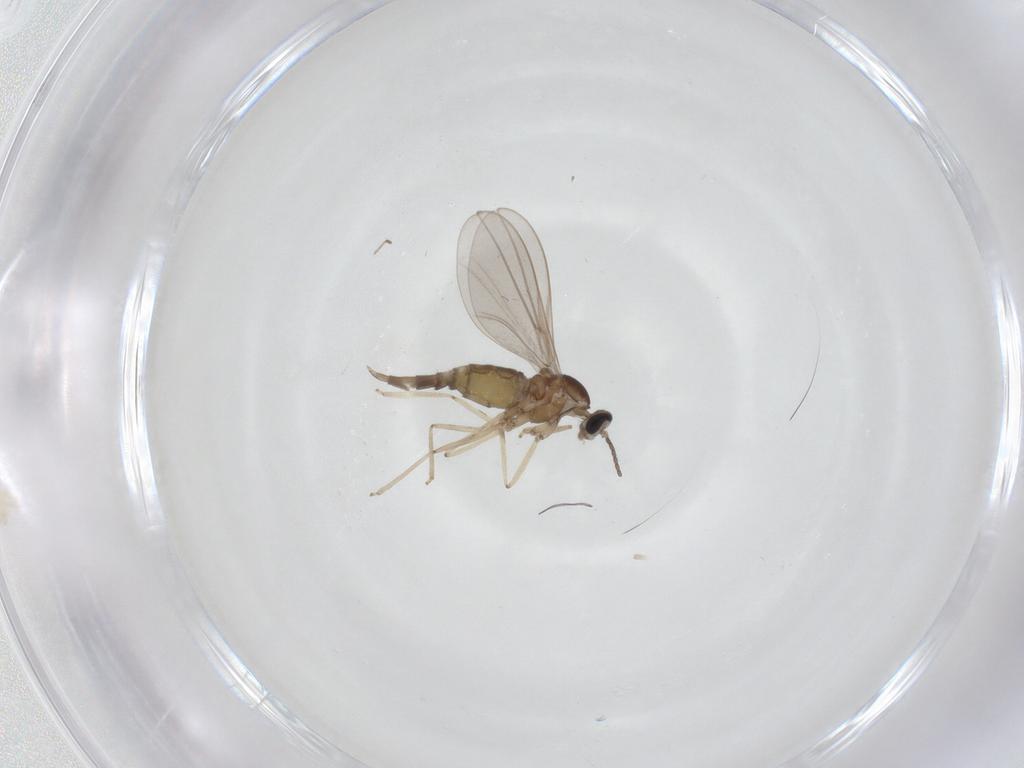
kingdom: Animalia
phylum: Arthropoda
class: Insecta
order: Diptera
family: Cecidomyiidae
